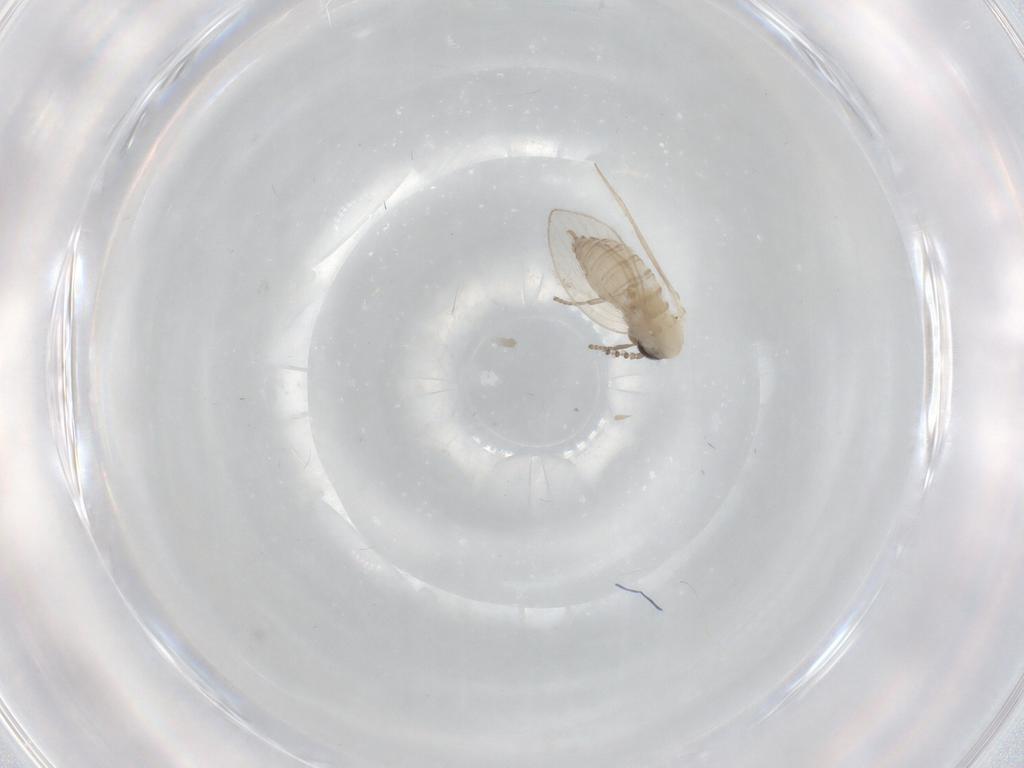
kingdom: Animalia
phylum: Arthropoda
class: Insecta
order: Diptera
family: Psychodidae
